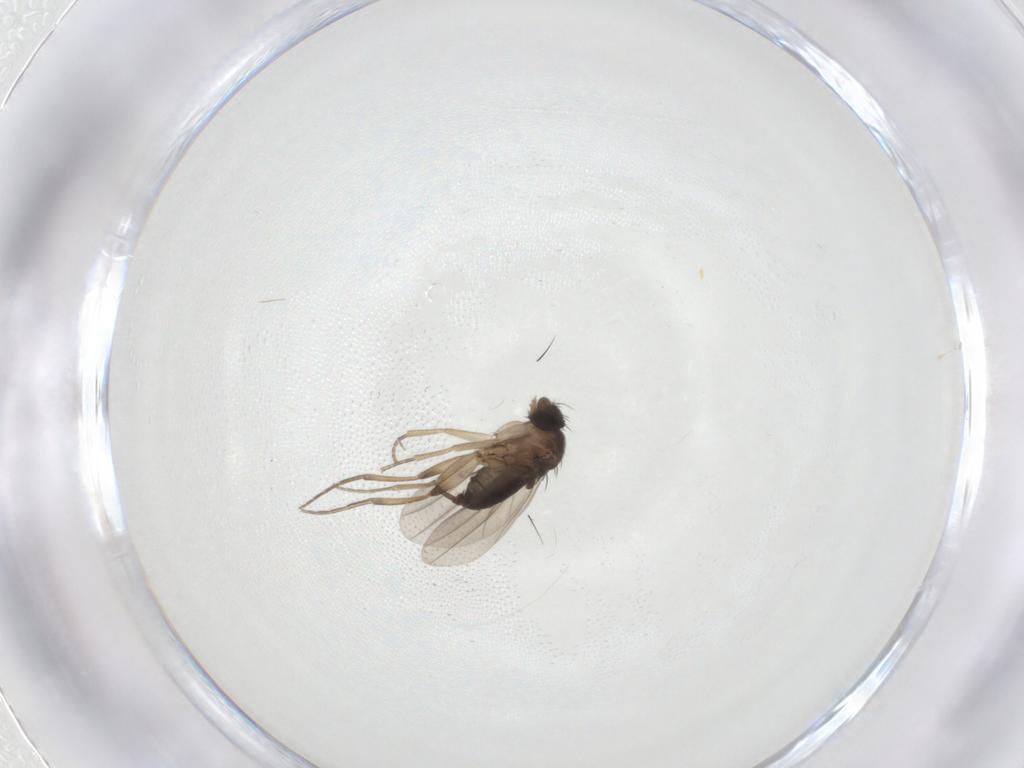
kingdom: Animalia
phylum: Arthropoda
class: Insecta
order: Diptera
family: Phoridae
